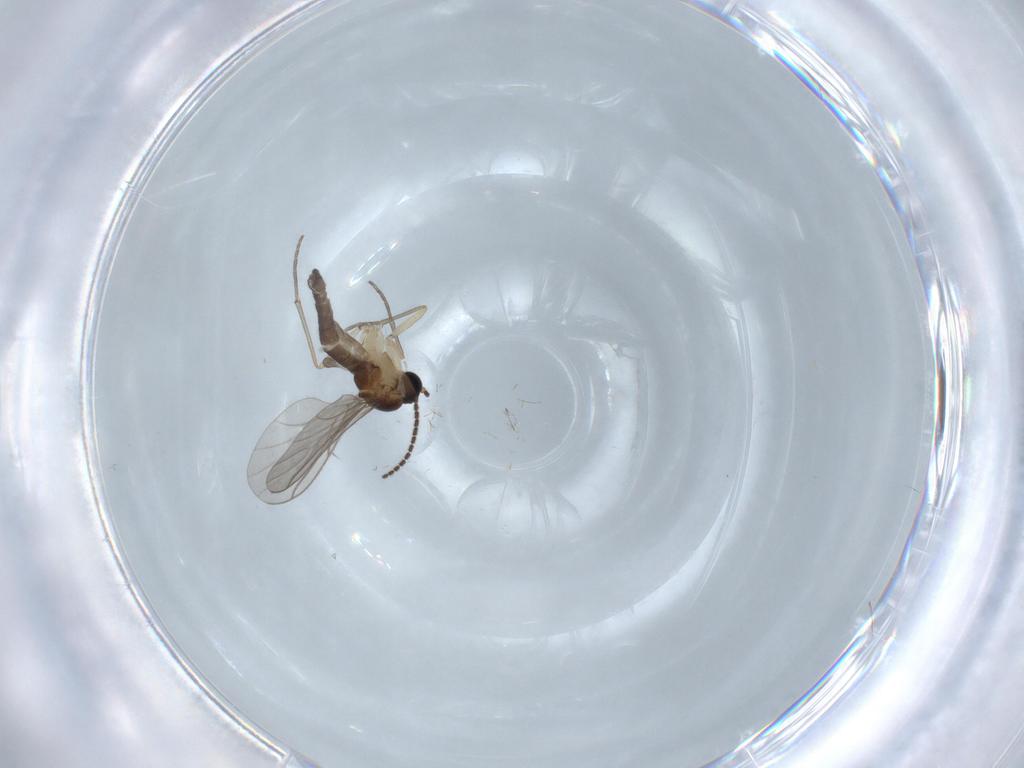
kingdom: Animalia
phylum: Arthropoda
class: Insecta
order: Diptera
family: Sciaridae
